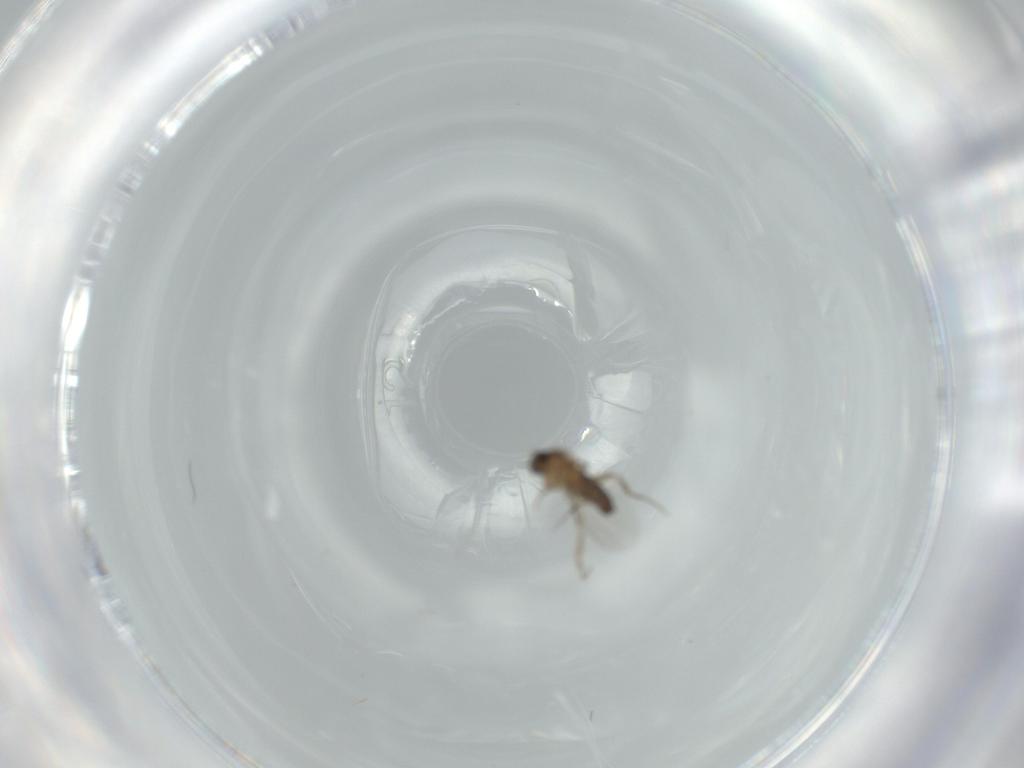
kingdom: Animalia
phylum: Arthropoda
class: Insecta
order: Diptera
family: Phoridae
